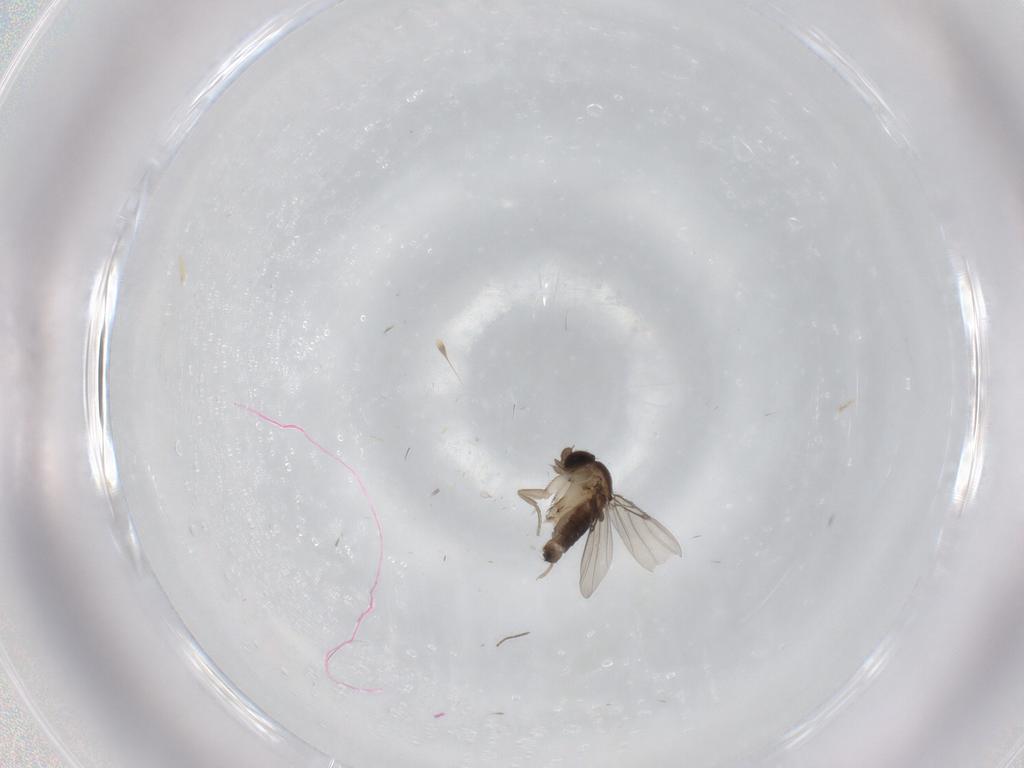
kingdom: Animalia
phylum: Arthropoda
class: Insecta
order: Diptera
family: Phoridae
